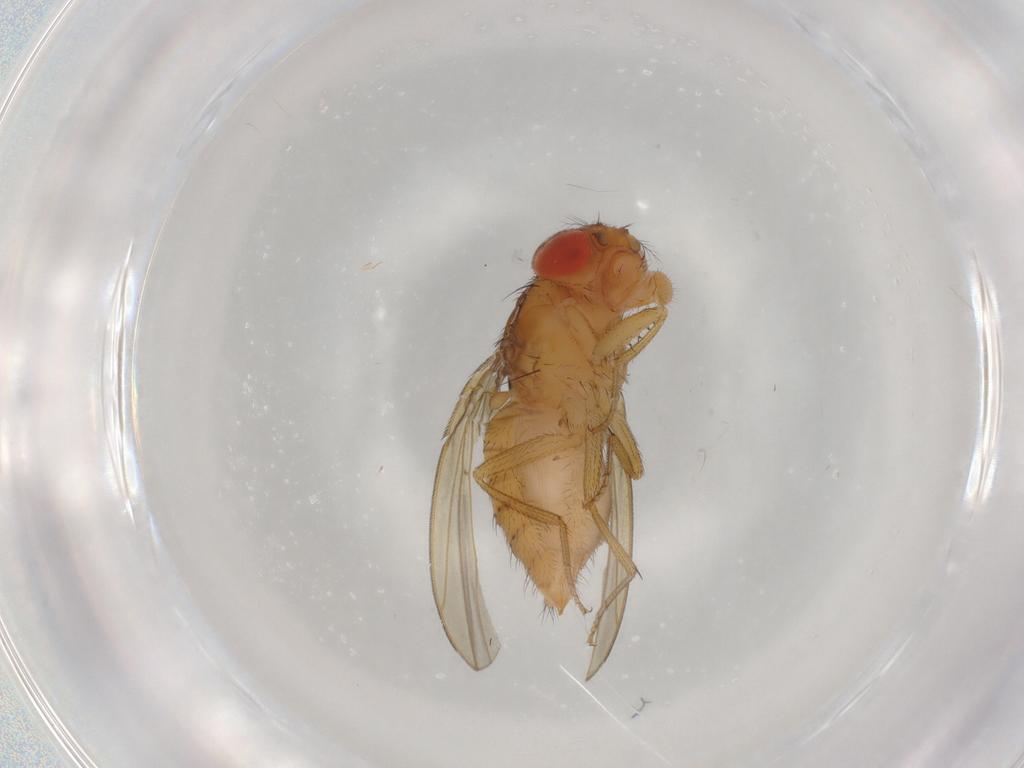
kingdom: Animalia
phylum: Arthropoda
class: Insecta
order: Diptera
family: Drosophilidae
